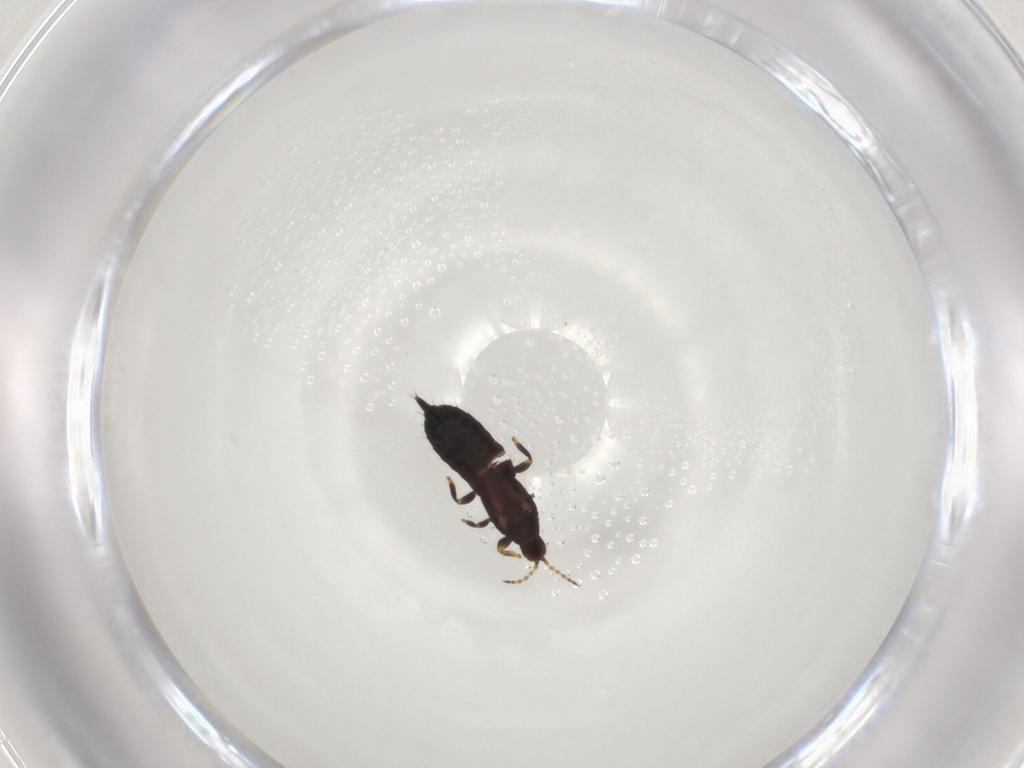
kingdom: Animalia
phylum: Arthropoda
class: Insecta
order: Thysanoptera
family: Phlaeothripidae
